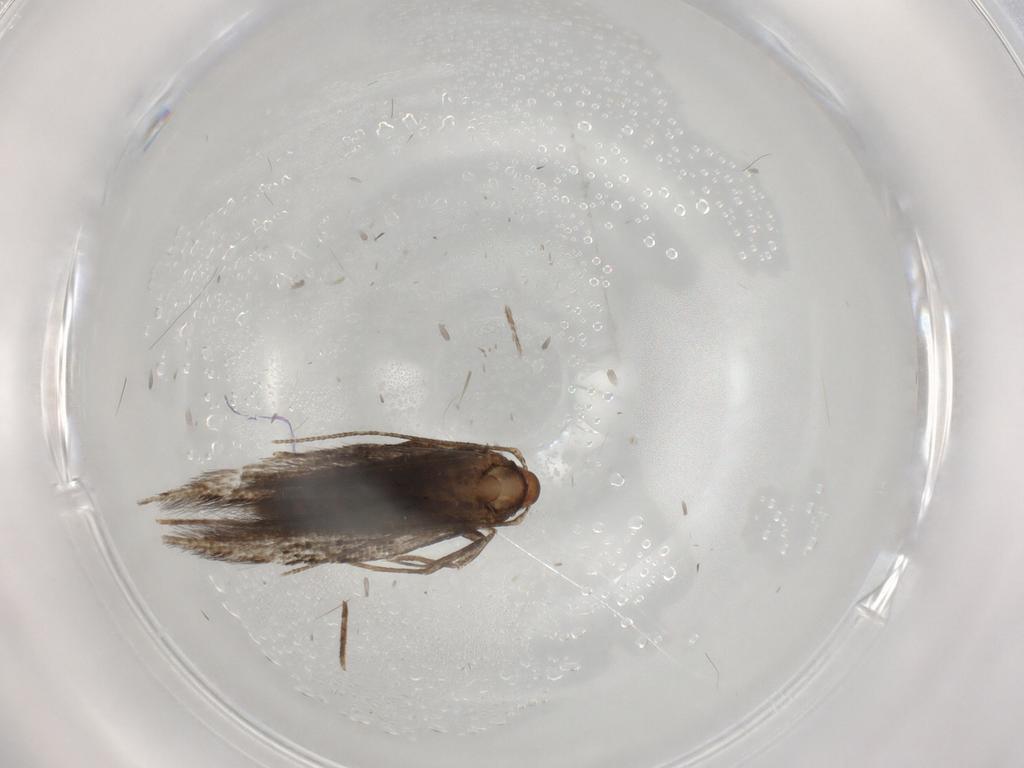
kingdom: Animalia
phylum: Arthropoda
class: Insecta
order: Lepidoptera
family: Cosmopterigidae
